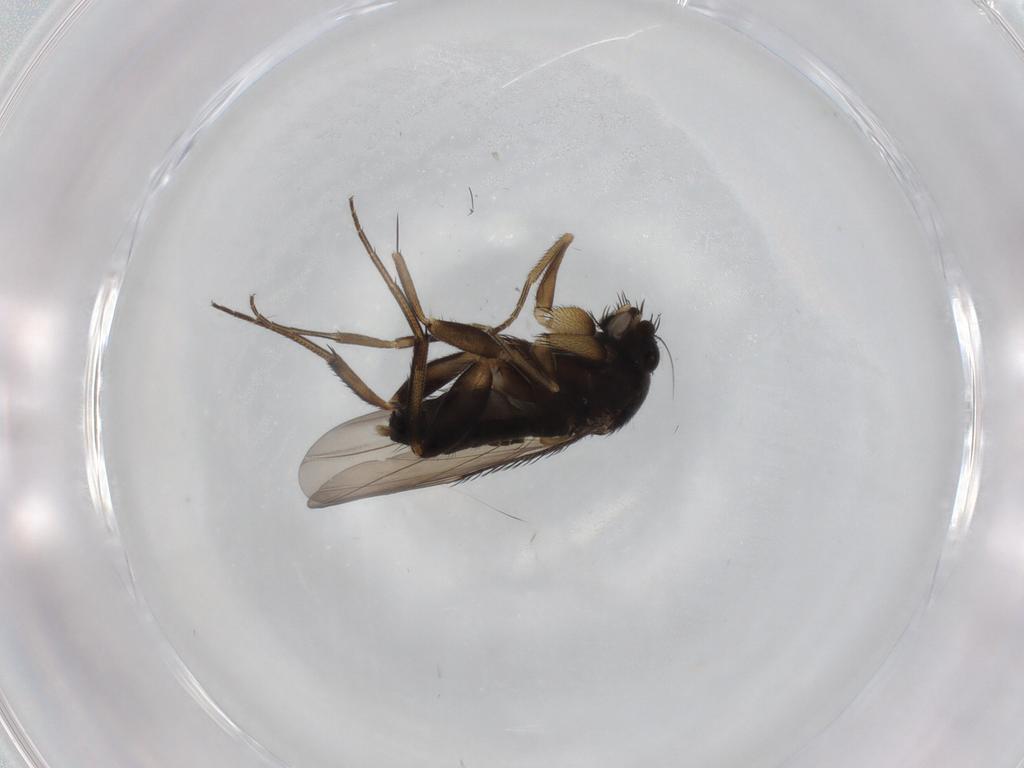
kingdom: Animalia
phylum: Arthropoda
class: Insecta
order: Diptera
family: Phoridae
